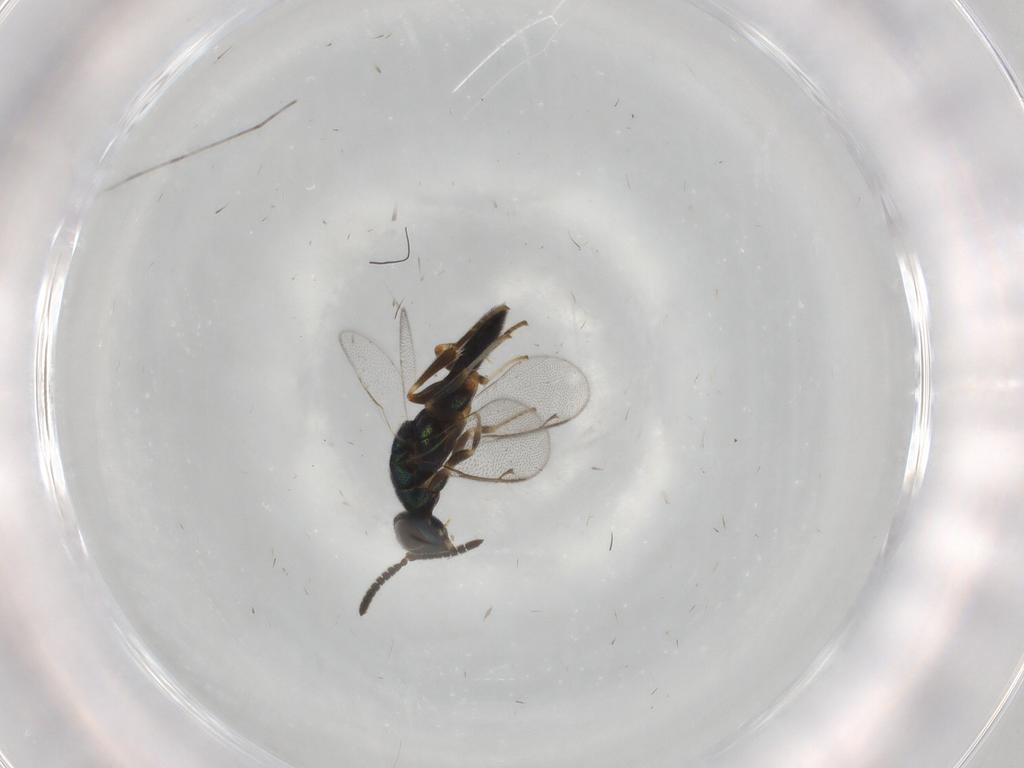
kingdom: Animalia
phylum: Arthropoda
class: Insecta
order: Hymenoptera
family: Cleonyminae
